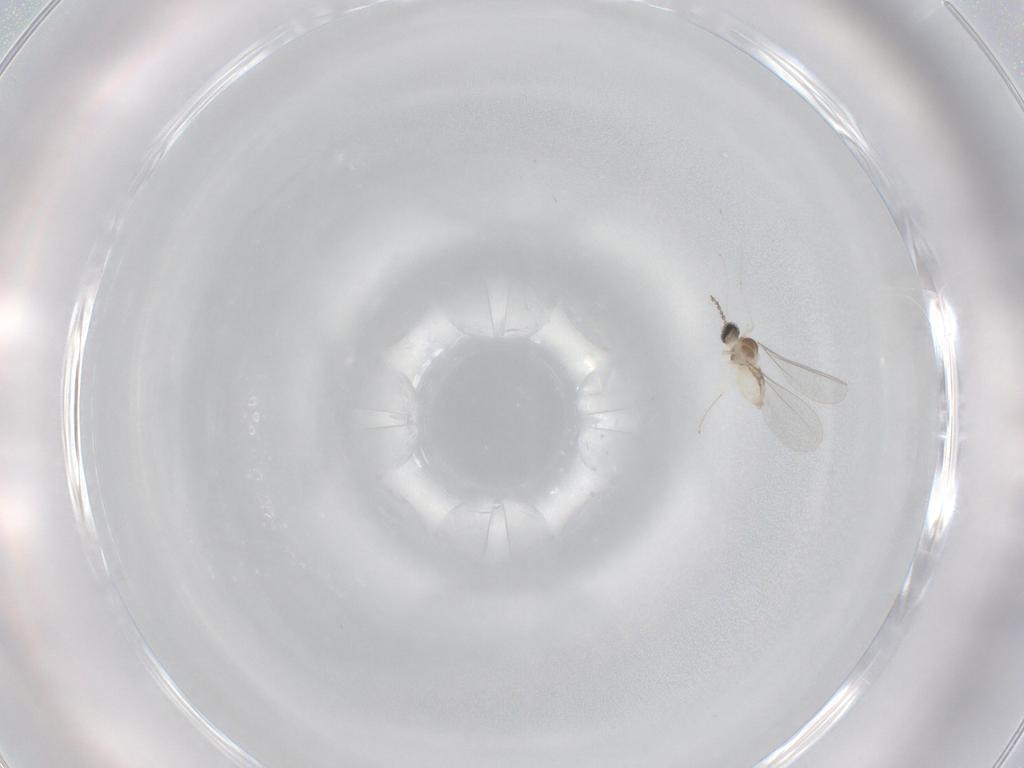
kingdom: Animalia
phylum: Arthropoda
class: Insecta
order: Diptera
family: Cecidomyiidae
